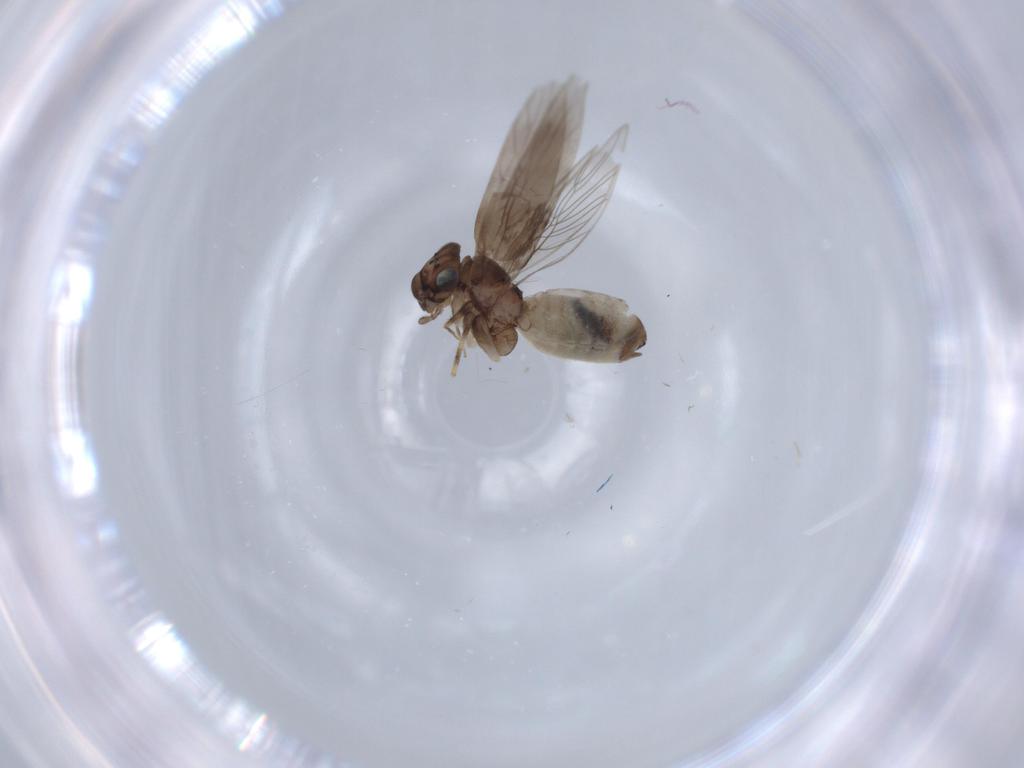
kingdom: Animalia
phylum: Arthropoda
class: Insecta
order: Psocodea
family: Lepidopsocidae
